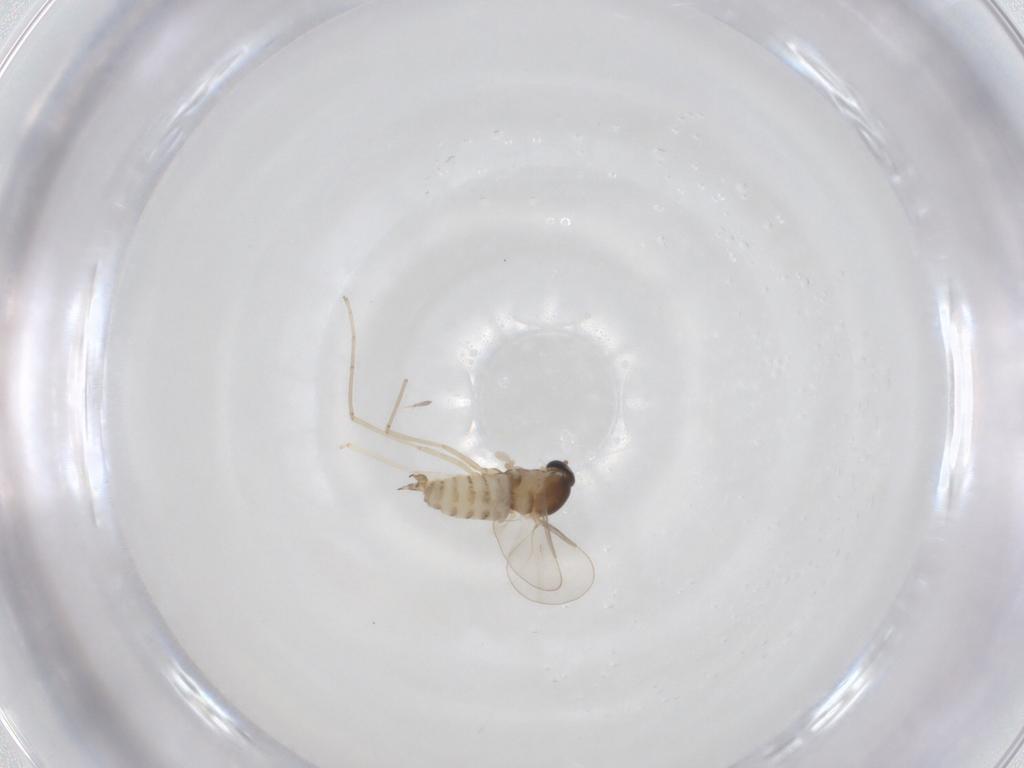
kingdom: Animalia
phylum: Arthropoda
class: Insecta
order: Diptera
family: Cecidomyiidae
